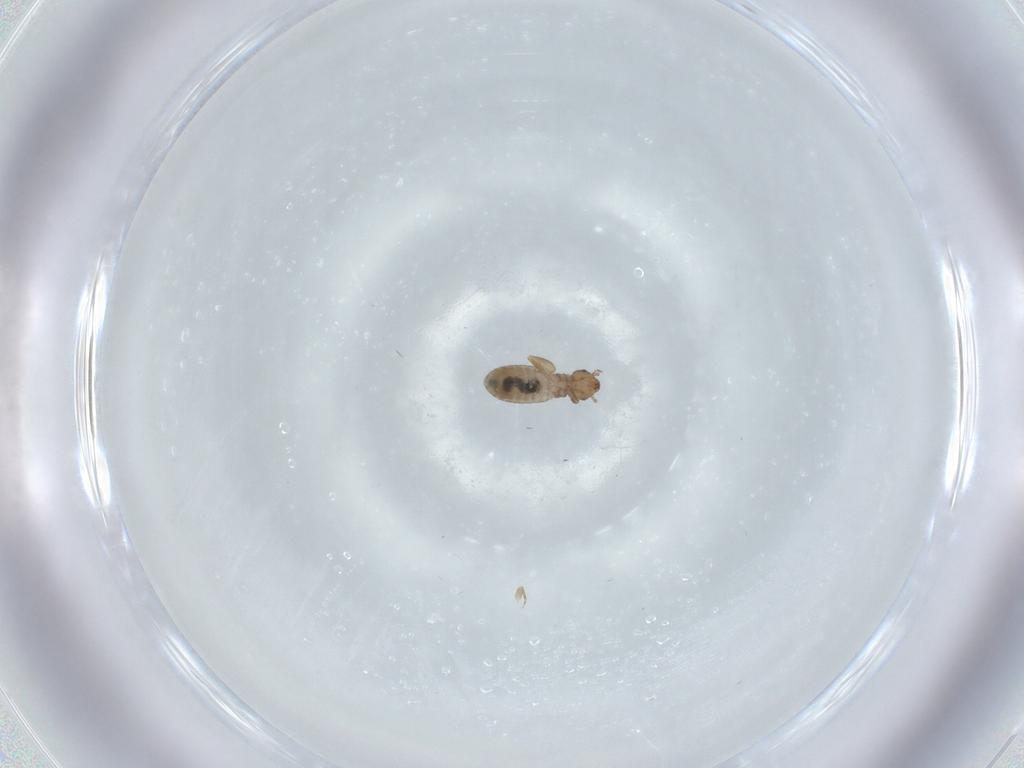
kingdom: Animalia
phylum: Arthropoda
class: Insecta
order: Psocodea
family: Liposcelididae
